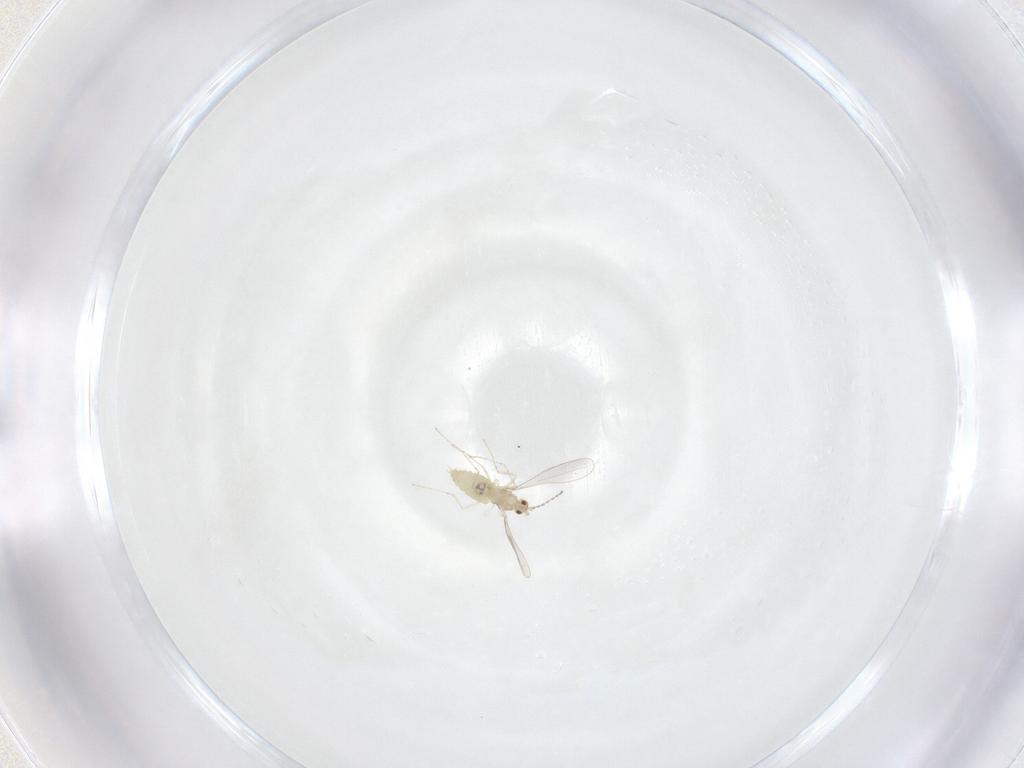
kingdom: Animalia
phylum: Arthropoda
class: Insecta
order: Diptera
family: Cecidomyiidae
